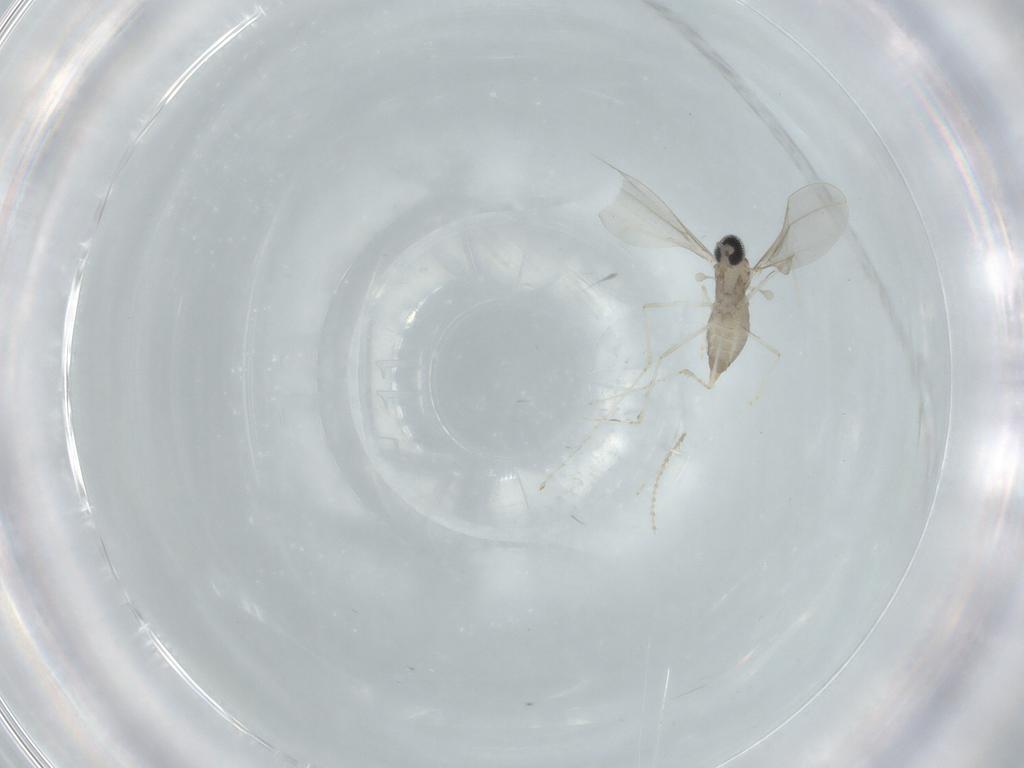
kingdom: Animalia
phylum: Arthropoda
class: Insecta
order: Diptera
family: Ceratopogonidae
